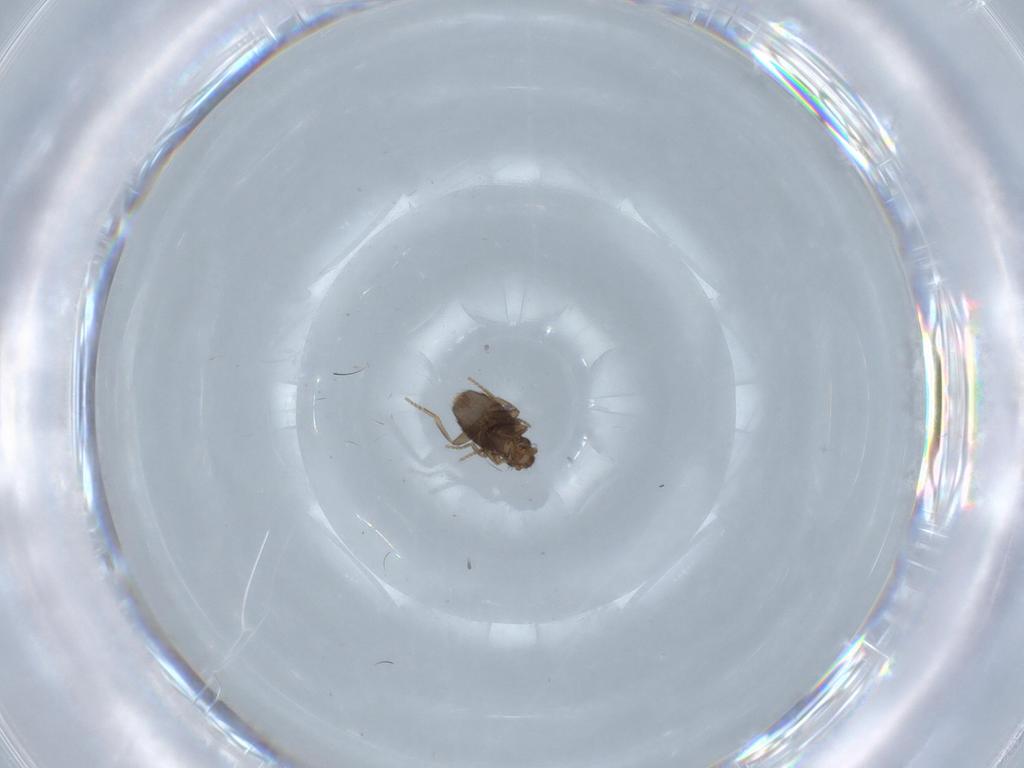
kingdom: Animalia
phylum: Arthropoda
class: Insecta
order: Diptera
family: Phoridae
